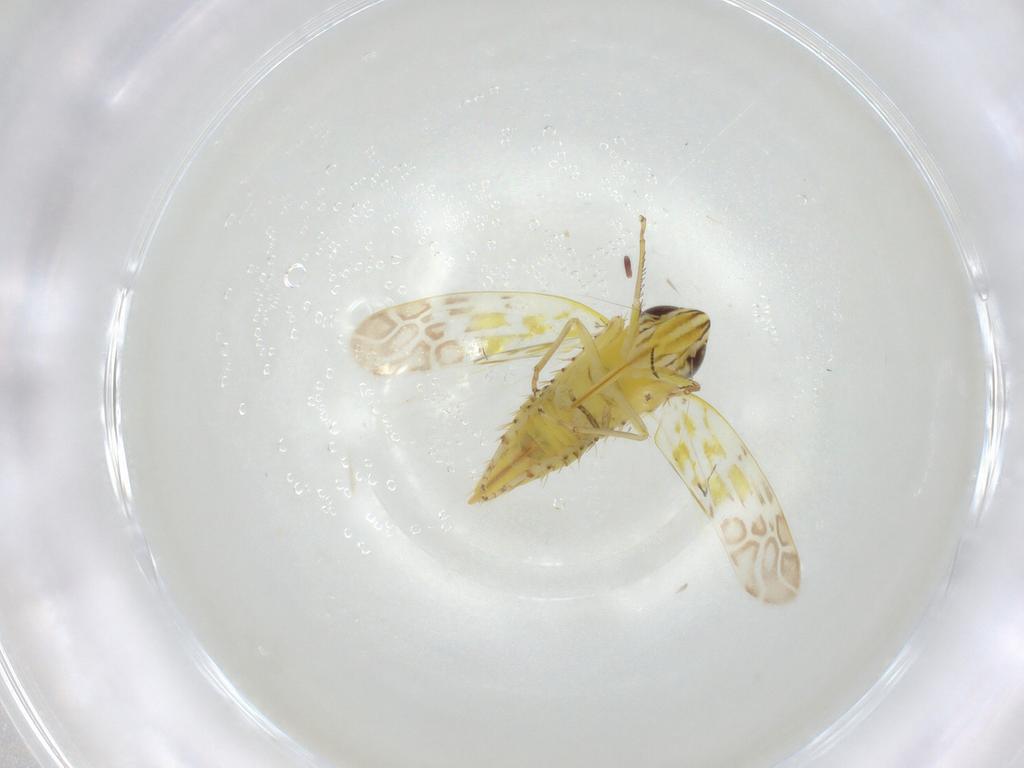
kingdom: Animalia
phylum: Arthropoda
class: Insecta
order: Hemiptera
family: Cicadellidae
